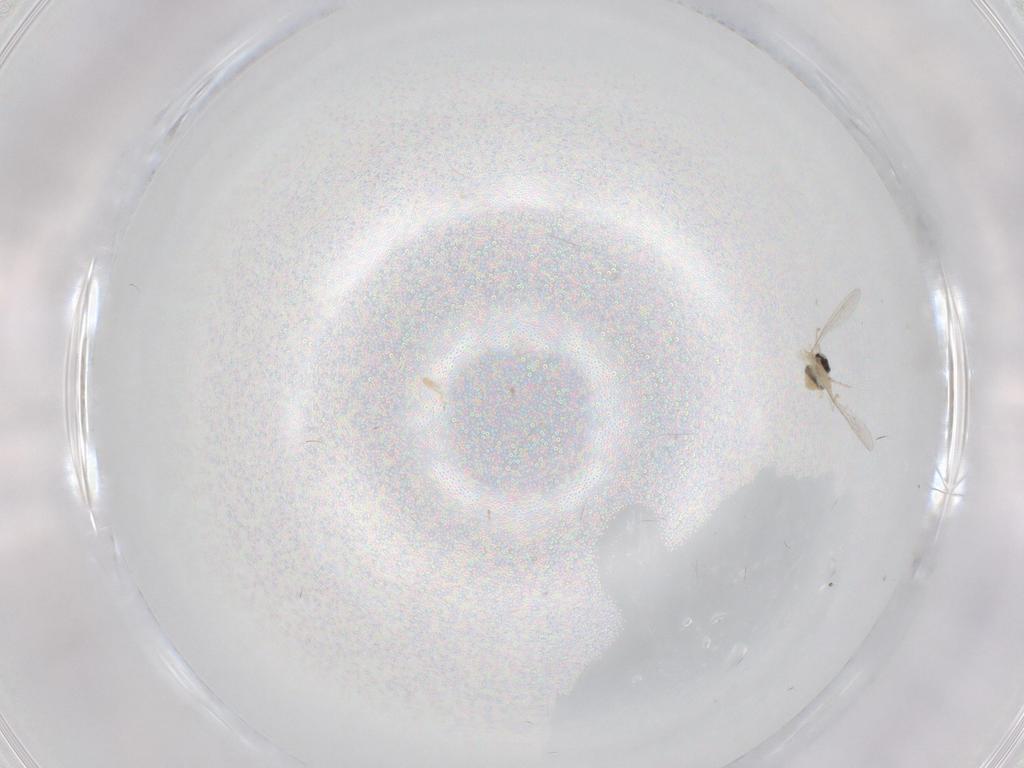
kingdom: Animalia
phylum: Arthropoda
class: Insecta
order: Diptera
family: Cecidomyiidae
